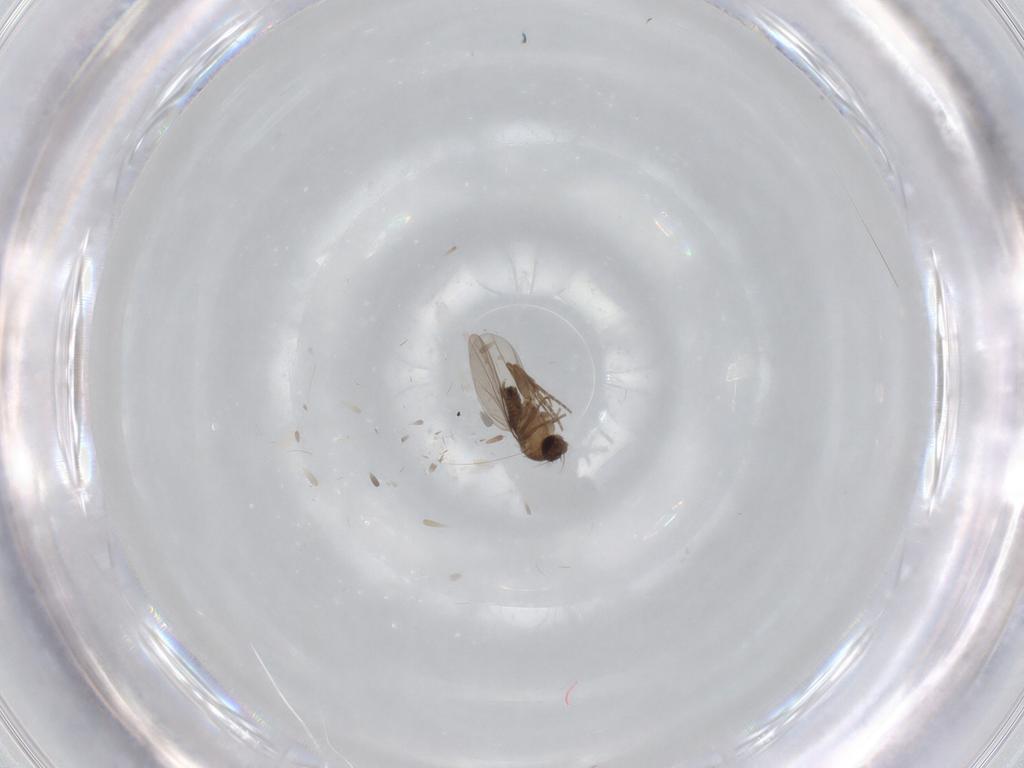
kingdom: Animalia
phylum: Arthropoda
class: Insecta
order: Diptera
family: Phoridae
